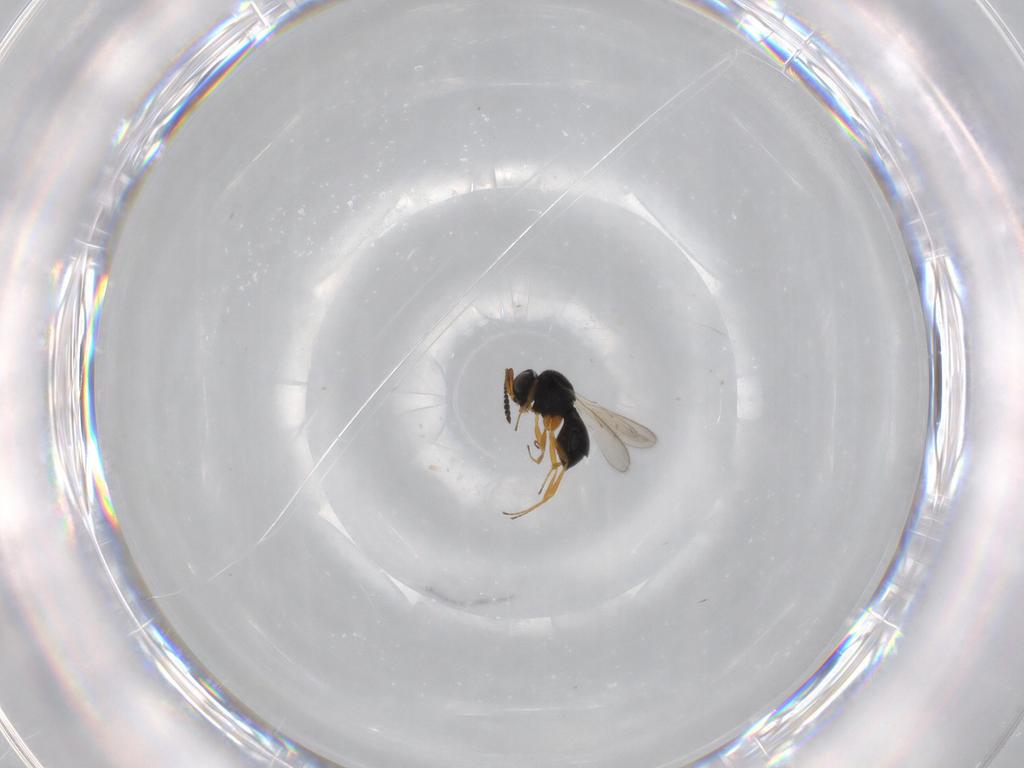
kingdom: Animalia
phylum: Arthropoda
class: Insecta
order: Hymenoptera
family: Scelionidae
